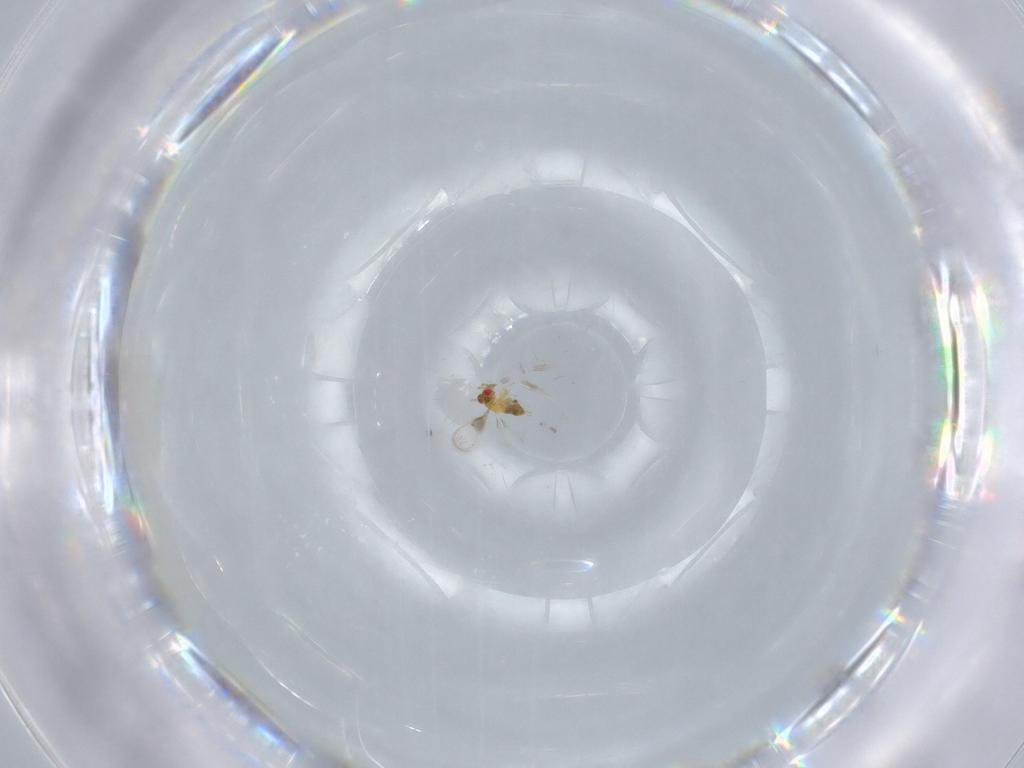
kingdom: Animalia
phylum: Arthropoda
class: Insecta
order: Hymenoptera
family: Trichogrammatidae
